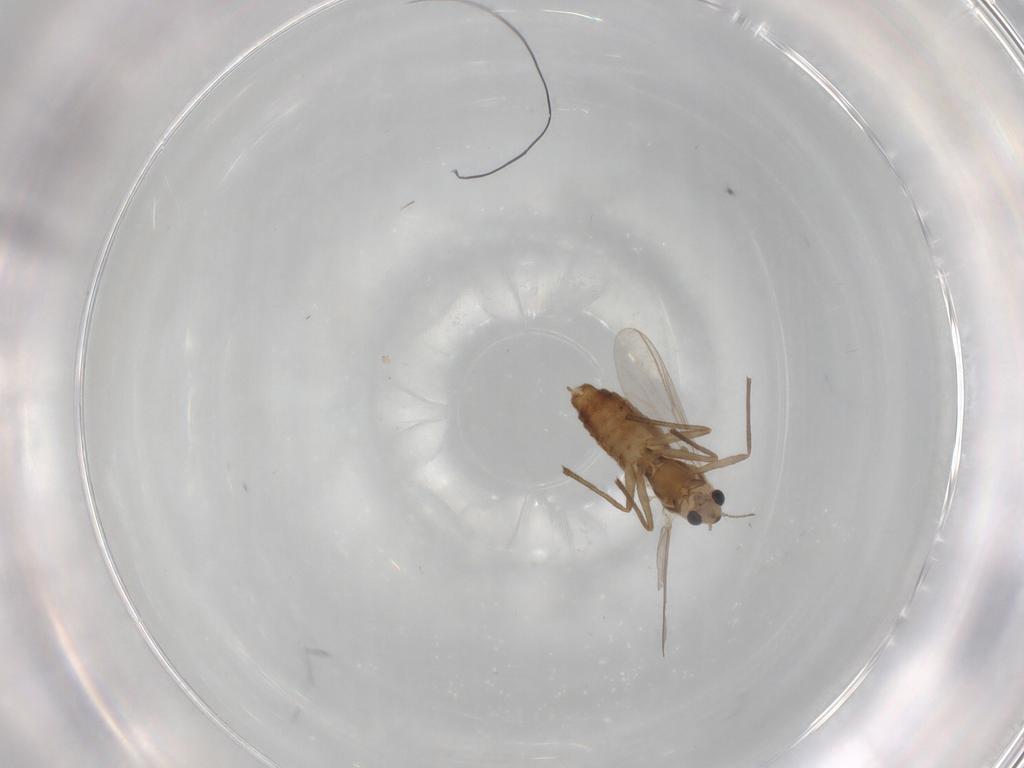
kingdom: Animalia
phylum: Arthropoda
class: Insecta
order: Diptera
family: Chironomidae
